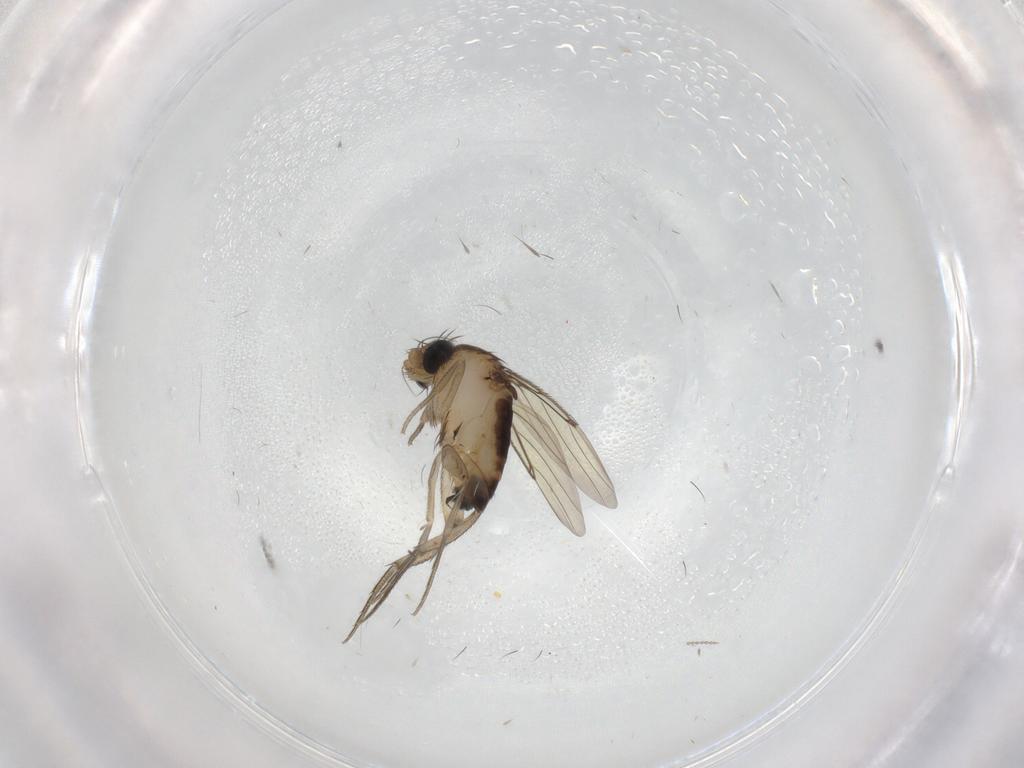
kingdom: Animalia
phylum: Arthropoda
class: Insecta
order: Diptera
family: Phoridae
